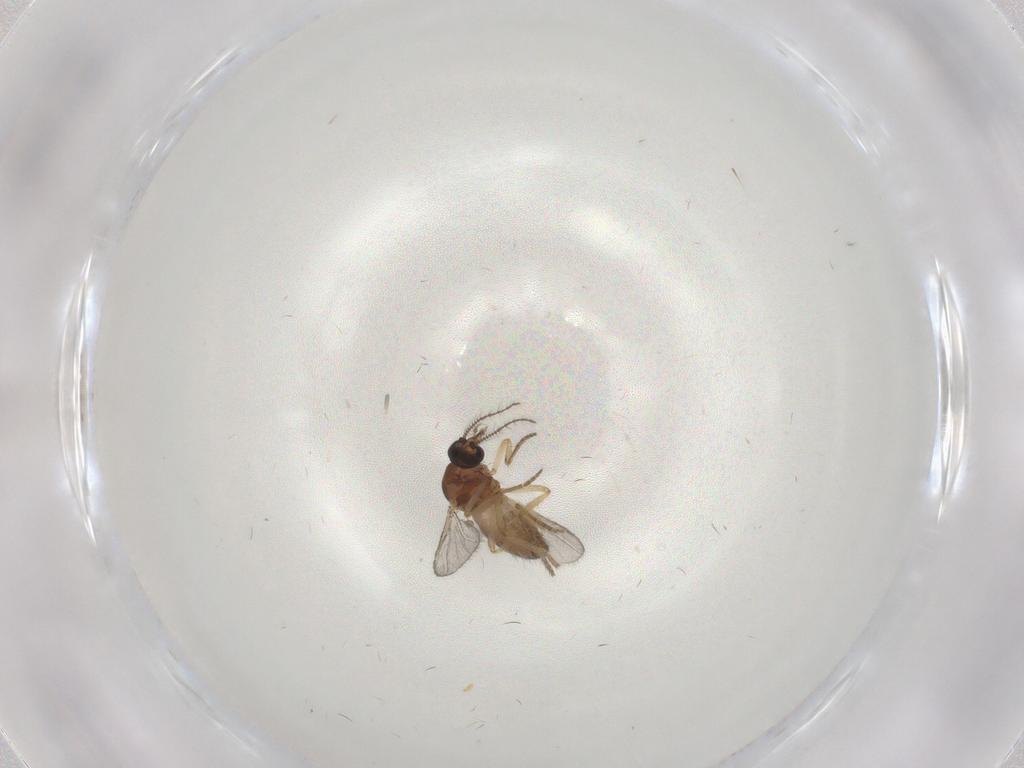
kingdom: Animalia
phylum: Arthropoda
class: Insecta
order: Diptera
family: Ceratopogonidae
